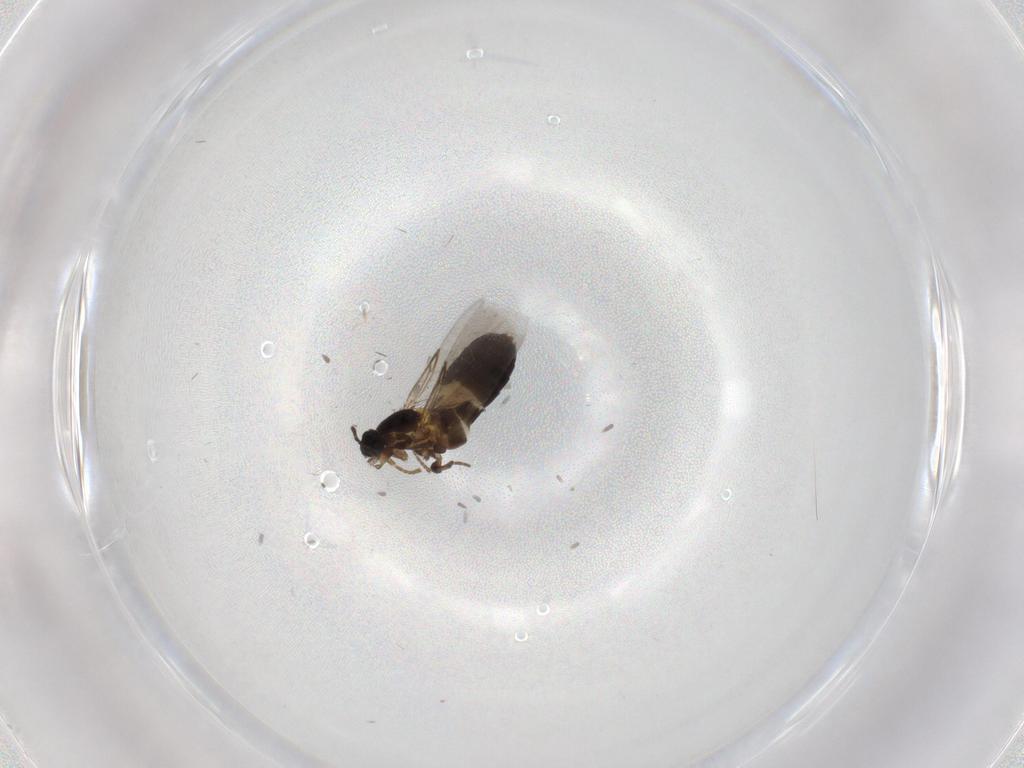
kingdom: Animalia
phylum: Arthropoda
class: Insecta
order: Diptera
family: Scatopsidae
